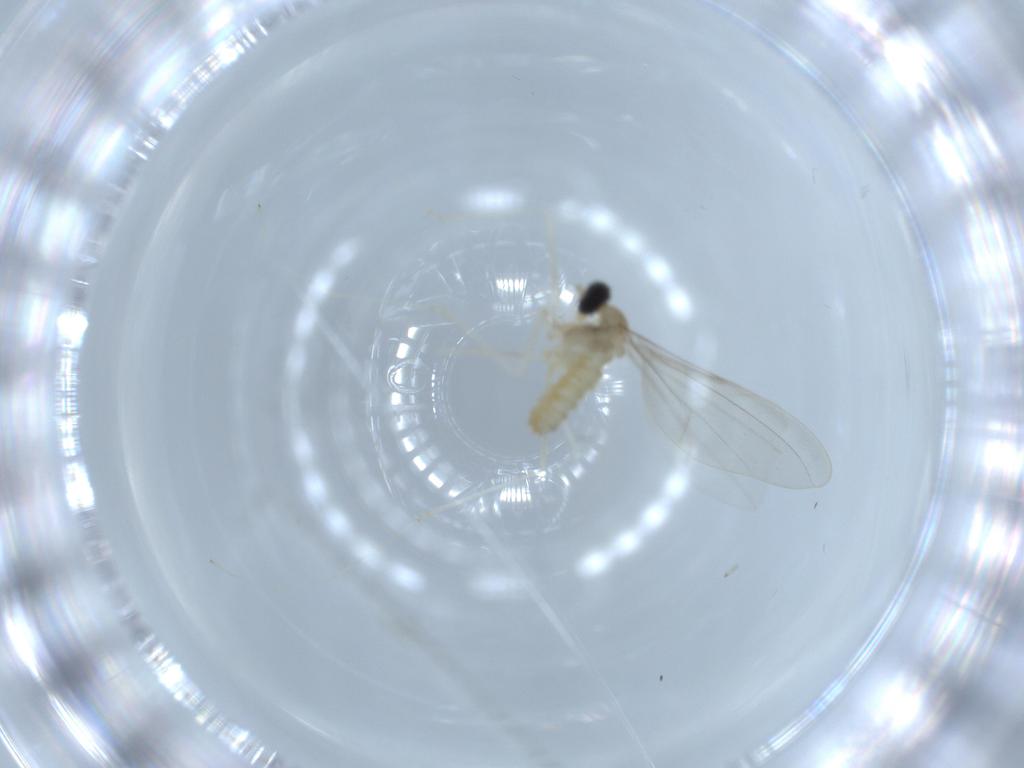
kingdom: Animalia
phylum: Arthropoda
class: Insecta
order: Diptera
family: Cecidomyiidae
